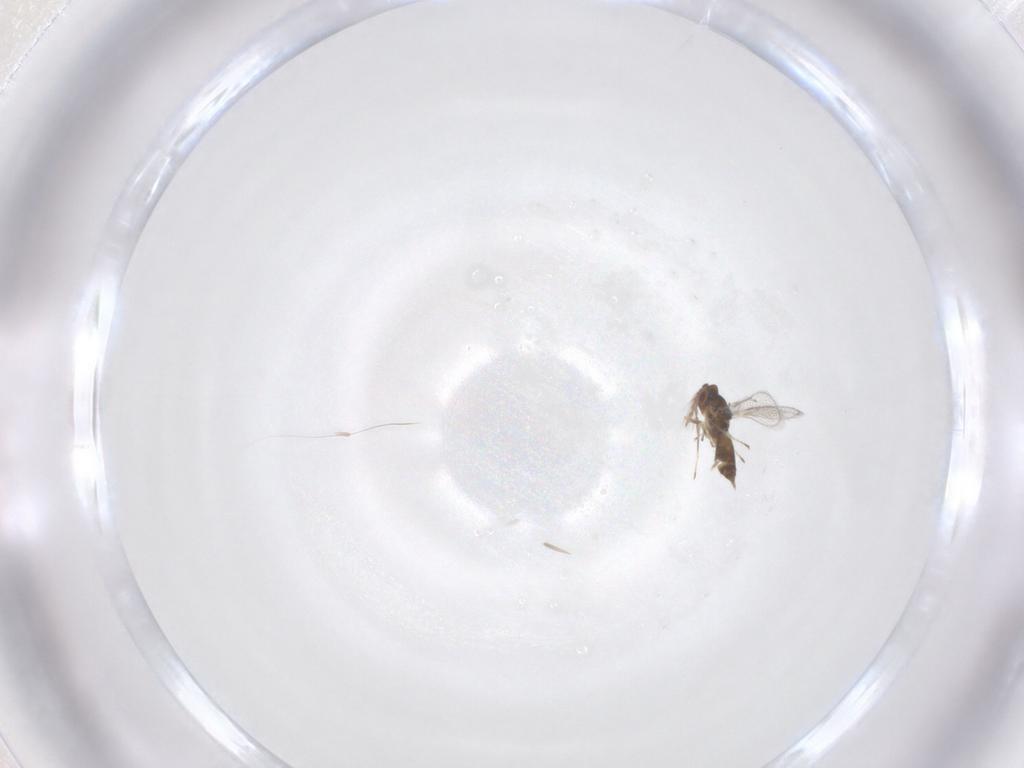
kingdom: Animalia
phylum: Arthropoda
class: Insecta
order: Hymenoptera
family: Eulophidae
